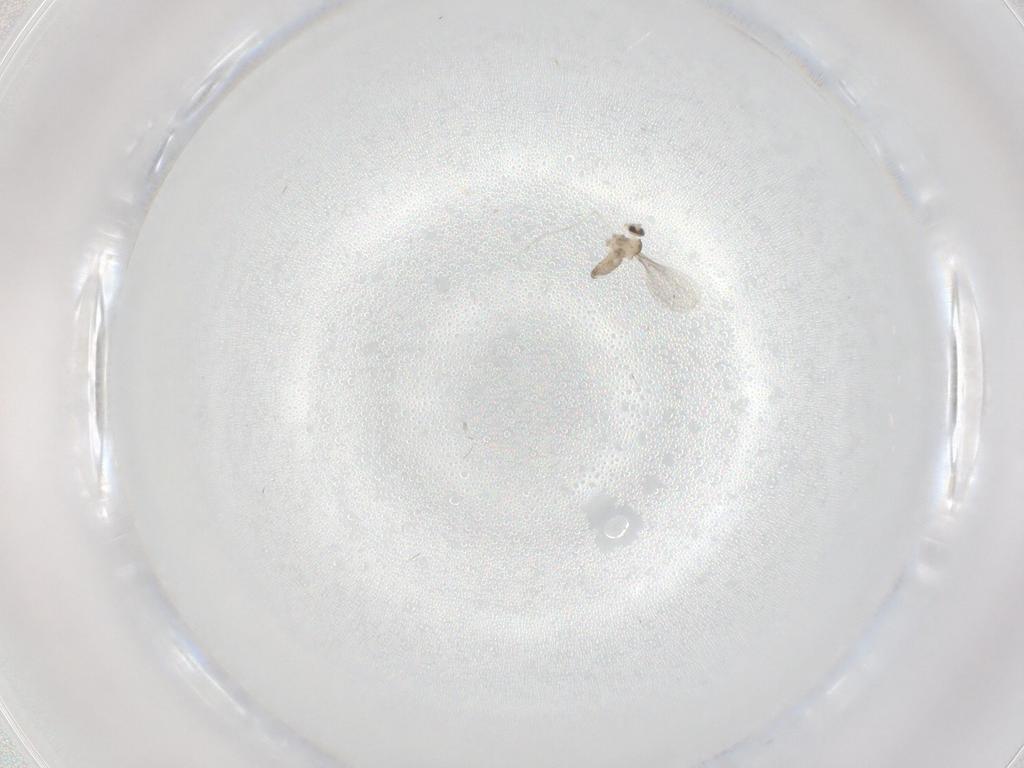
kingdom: Animalia
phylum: Arthropoda
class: Insecta
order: Diptera
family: Cecidomyiidae
